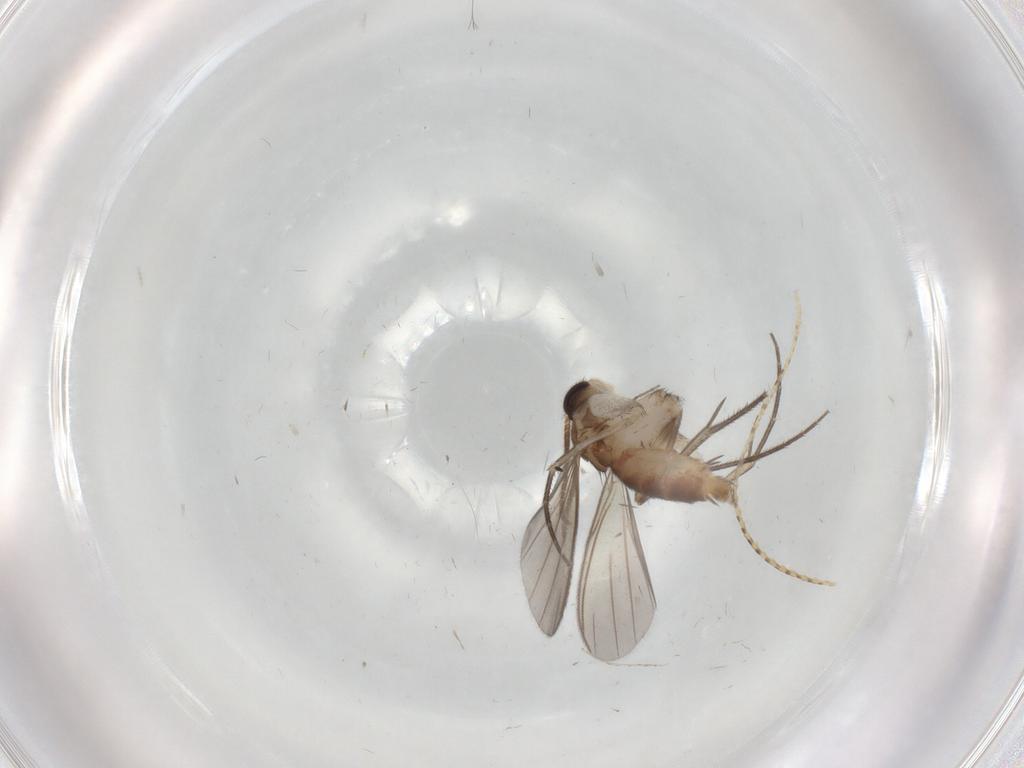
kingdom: Animalia
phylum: Arthropoda
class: Insecta
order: Diptera
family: Mycetophilidae
